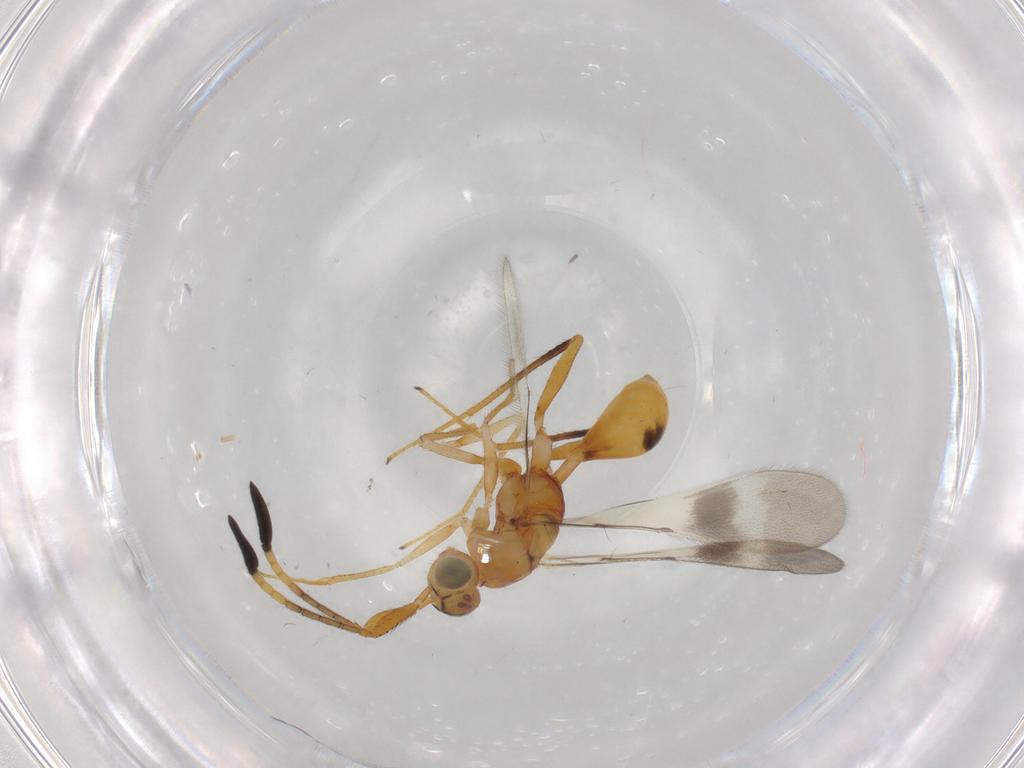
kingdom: Animalia
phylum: Arthropoda
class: Insecta
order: Hymenoptera
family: Mymaridae
